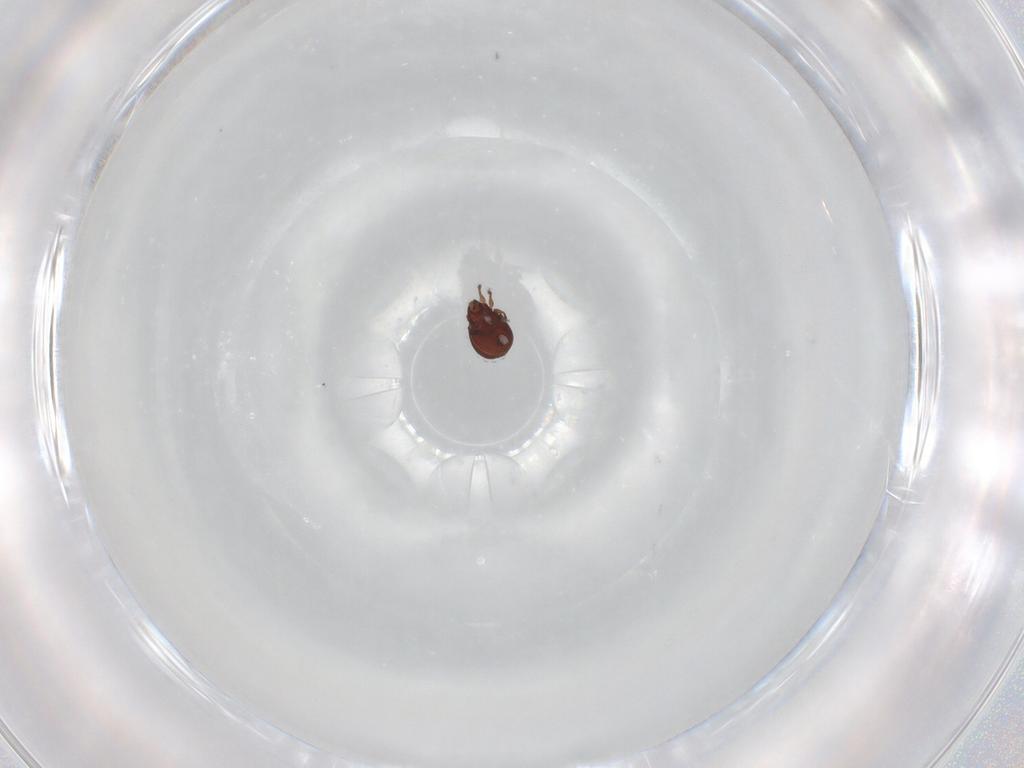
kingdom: Animalia
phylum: Arthropoda
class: Arachnida
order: Sarcoptiformes
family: Scheloribatidae
